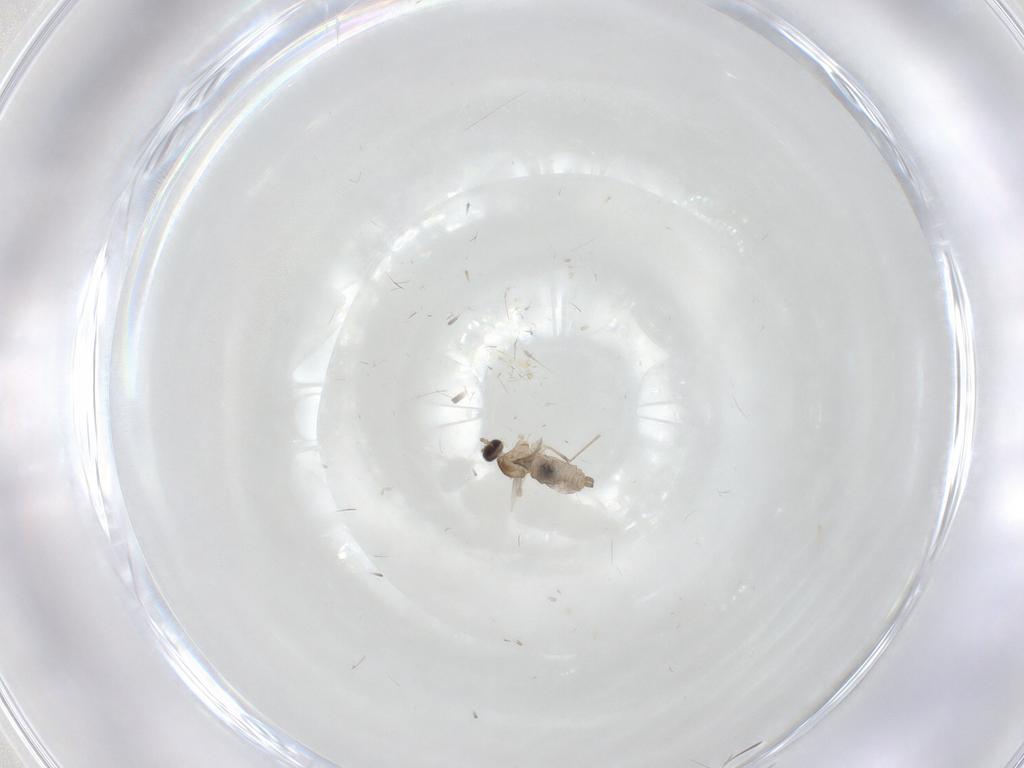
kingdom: Animalia
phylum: Arthropoda
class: Insecta
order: Diptera
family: Cecidomyiidae
